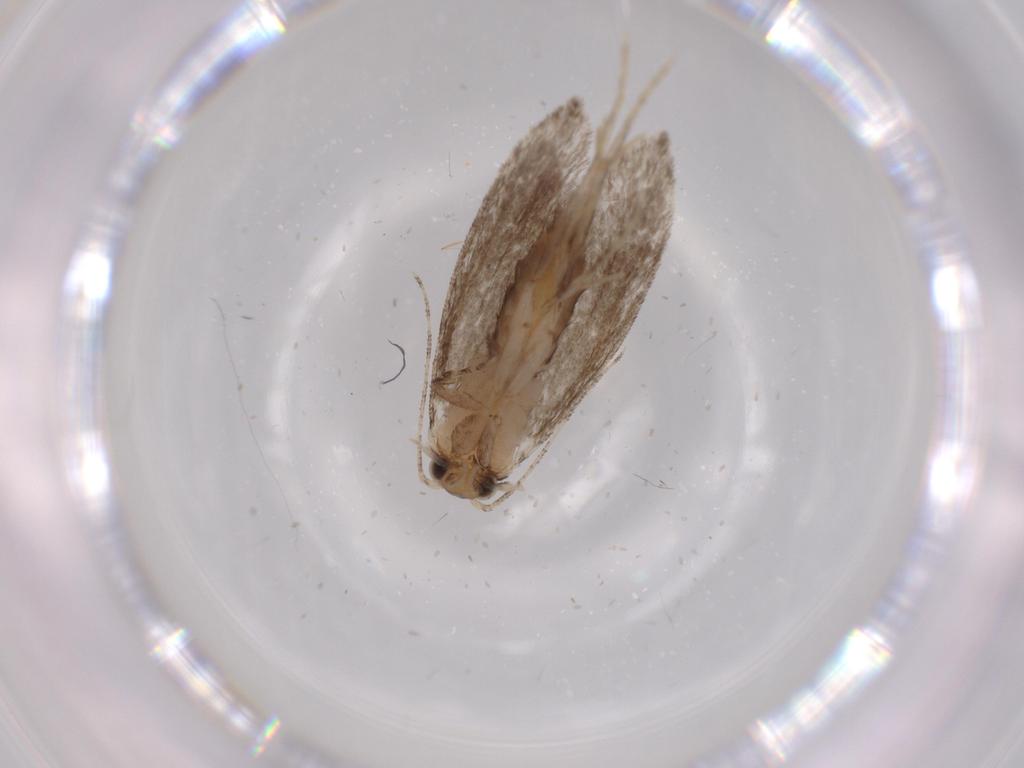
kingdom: Animalia
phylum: Arthropoda
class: Insecta
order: Lepidoptera
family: Tineidae
